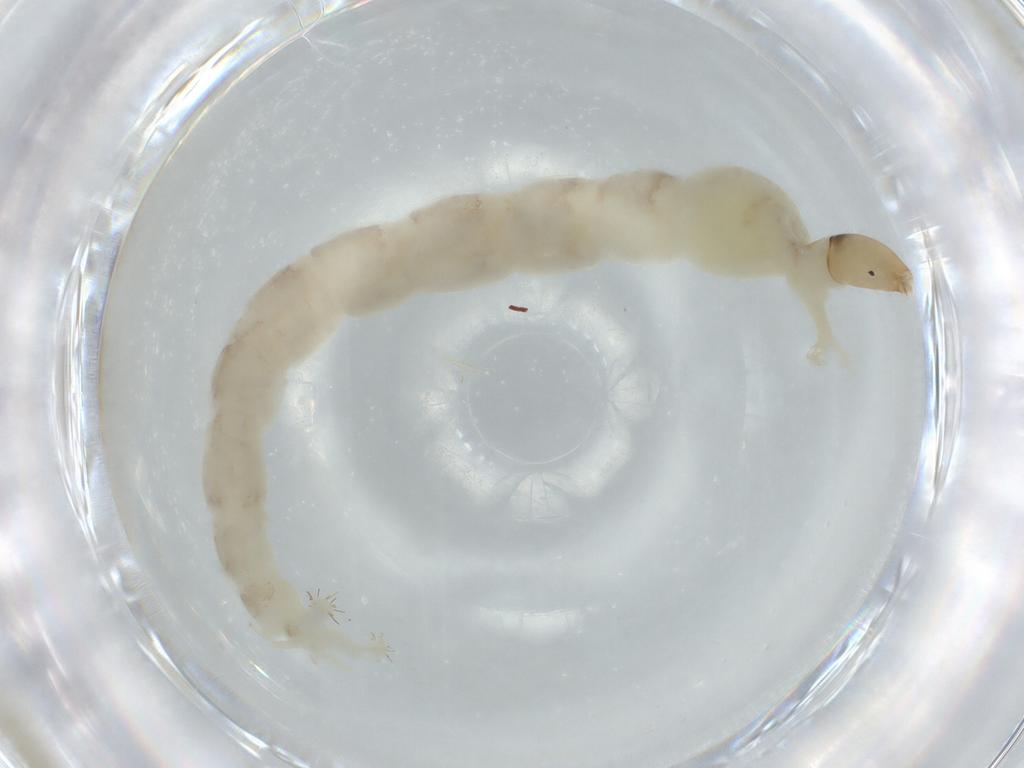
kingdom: Animalia
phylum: Arthropoda
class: Insecta
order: Diptera
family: Chironomidae
